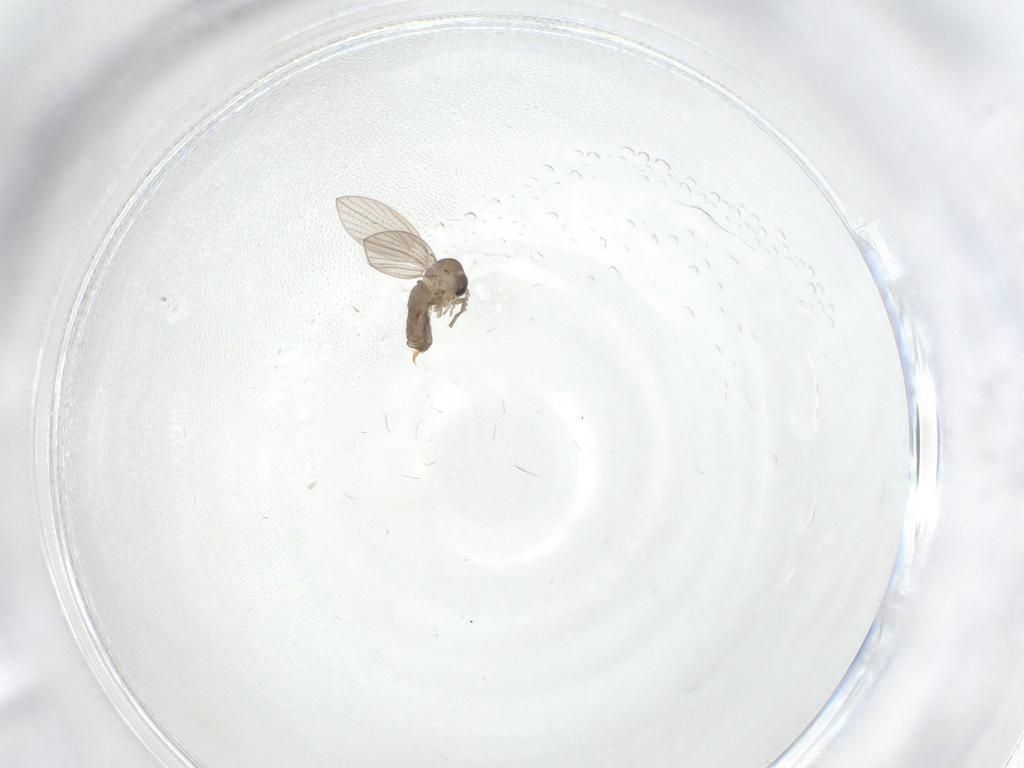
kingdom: Animalia
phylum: Arthropoda
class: Insecta
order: Diptera
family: Psychodidae
